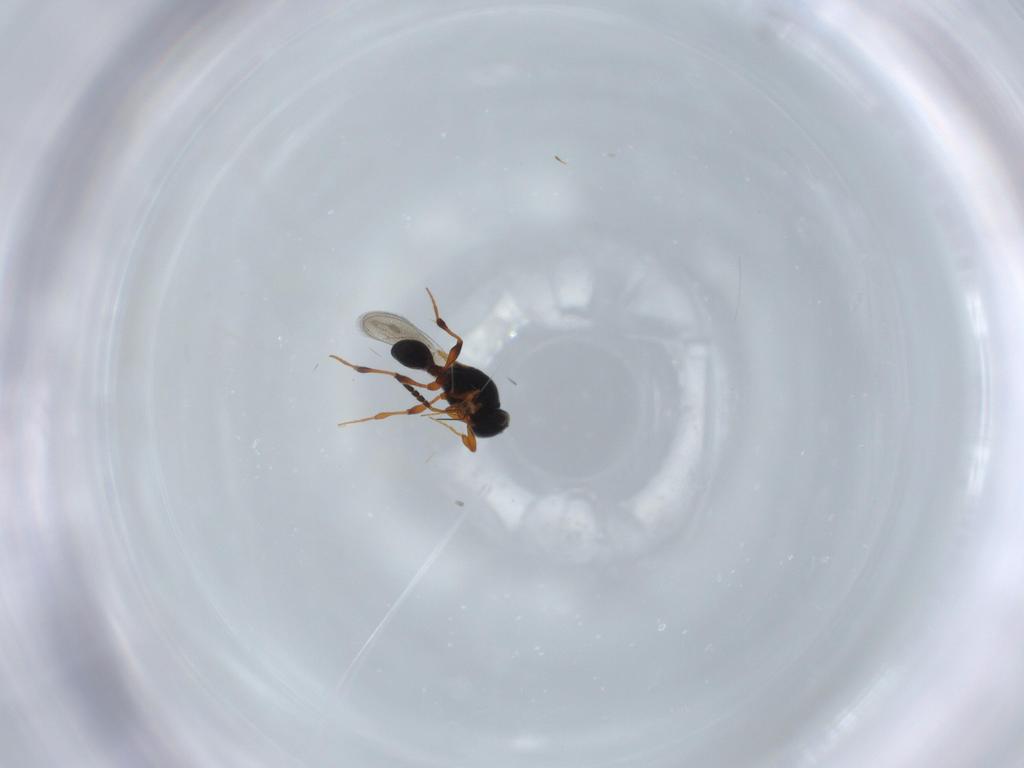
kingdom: Animalia
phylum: Arthropoda
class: Insecta
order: Hymenoptera
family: Scelionidae
